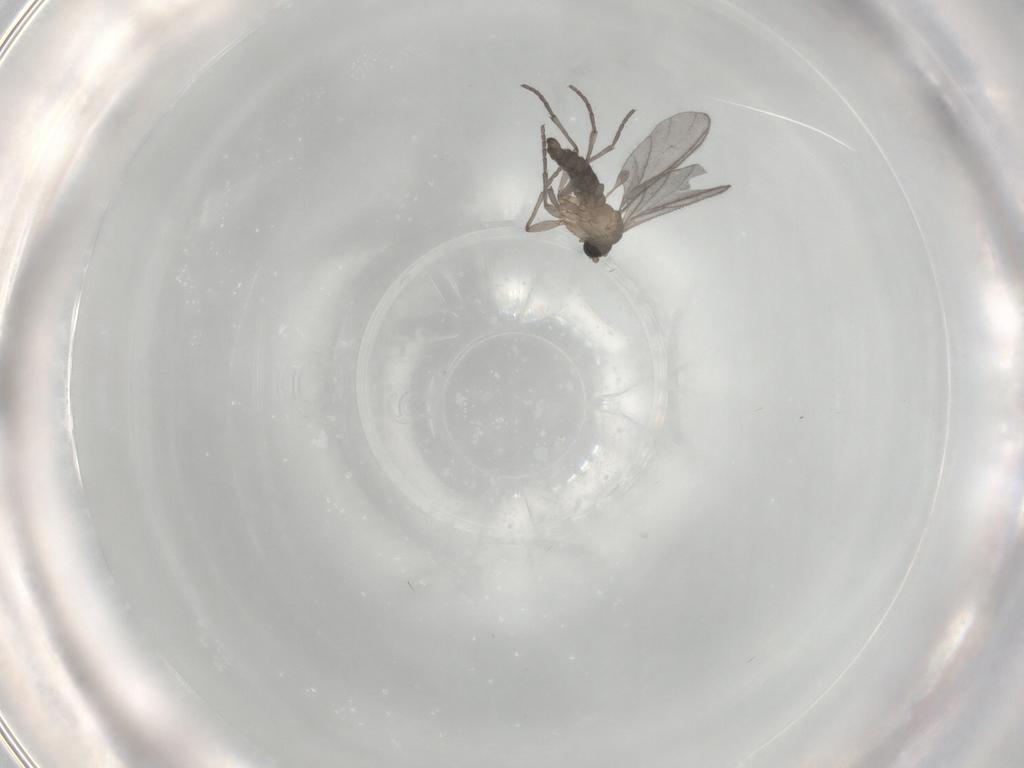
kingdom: Animalia
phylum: Arthropoda
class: Insecta
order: Diptera
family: Sciaridae
